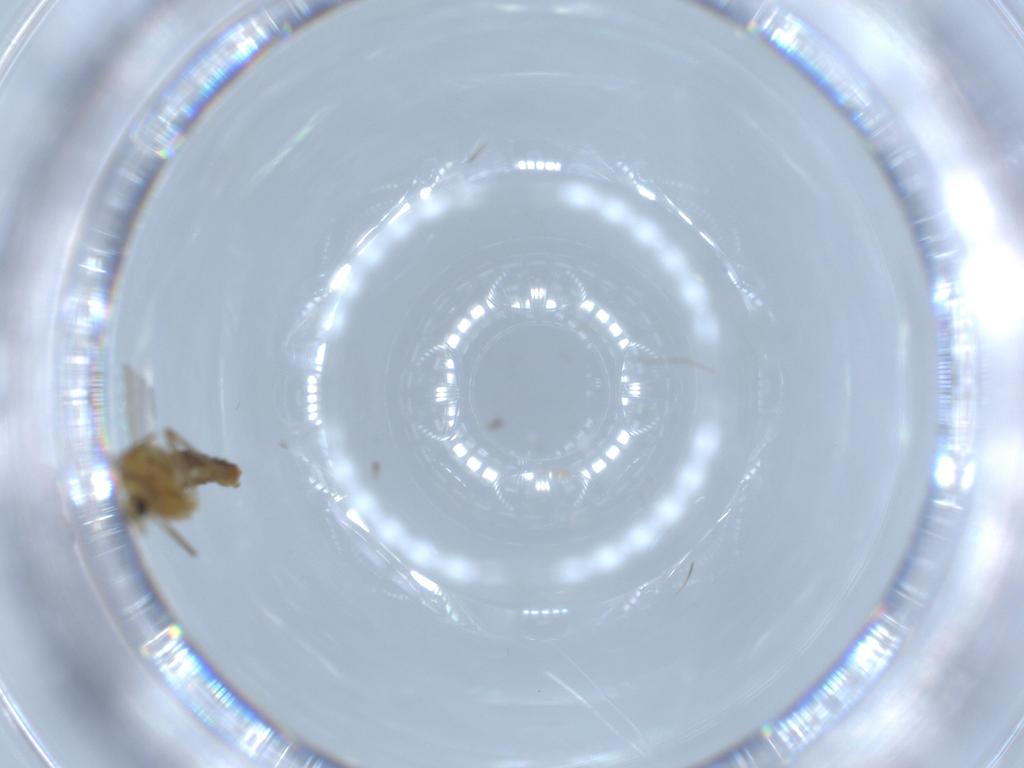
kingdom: Animalia
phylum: Arthropoda
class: Insecta
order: Diptera
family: Chironomidae
